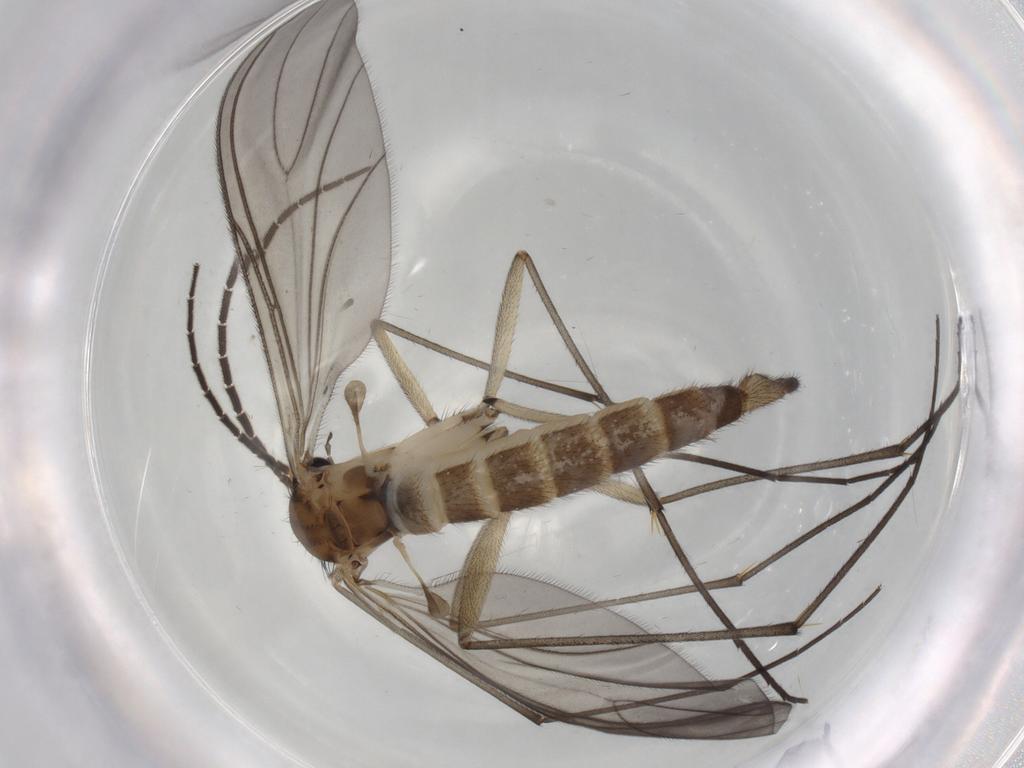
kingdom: Animalia
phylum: Arthropoda
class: Insecta
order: Diptera
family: Sciaridae
